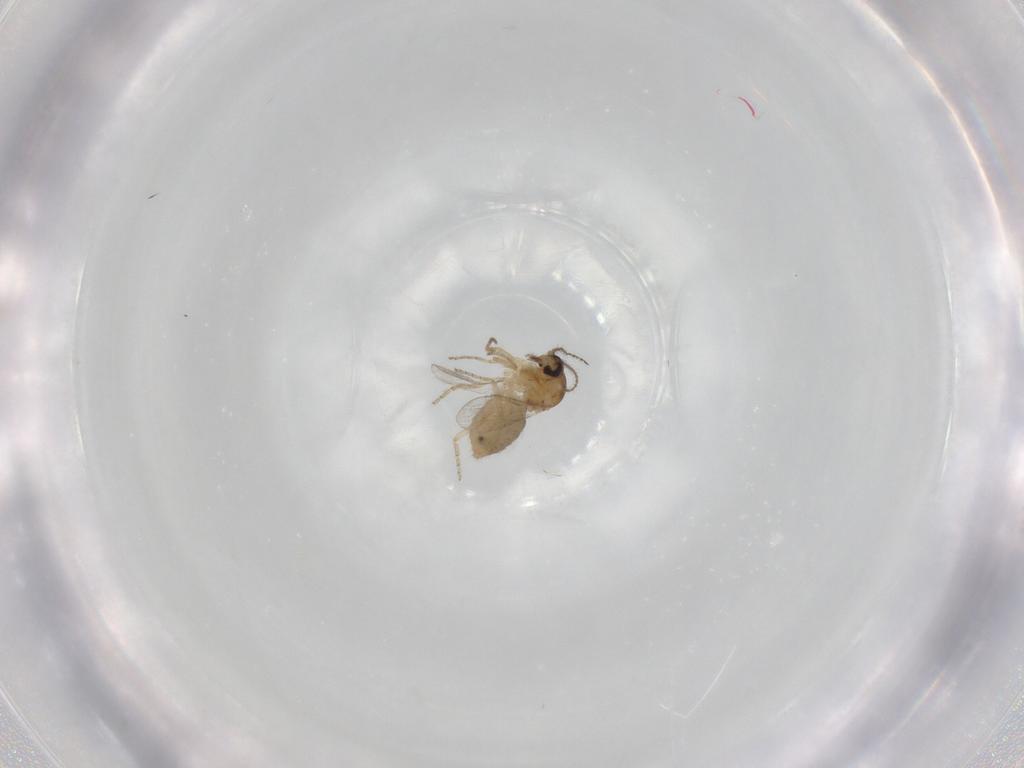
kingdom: Animalia
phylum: Arthropoda
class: Insecta
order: Diptera
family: Ceratopogonidae
